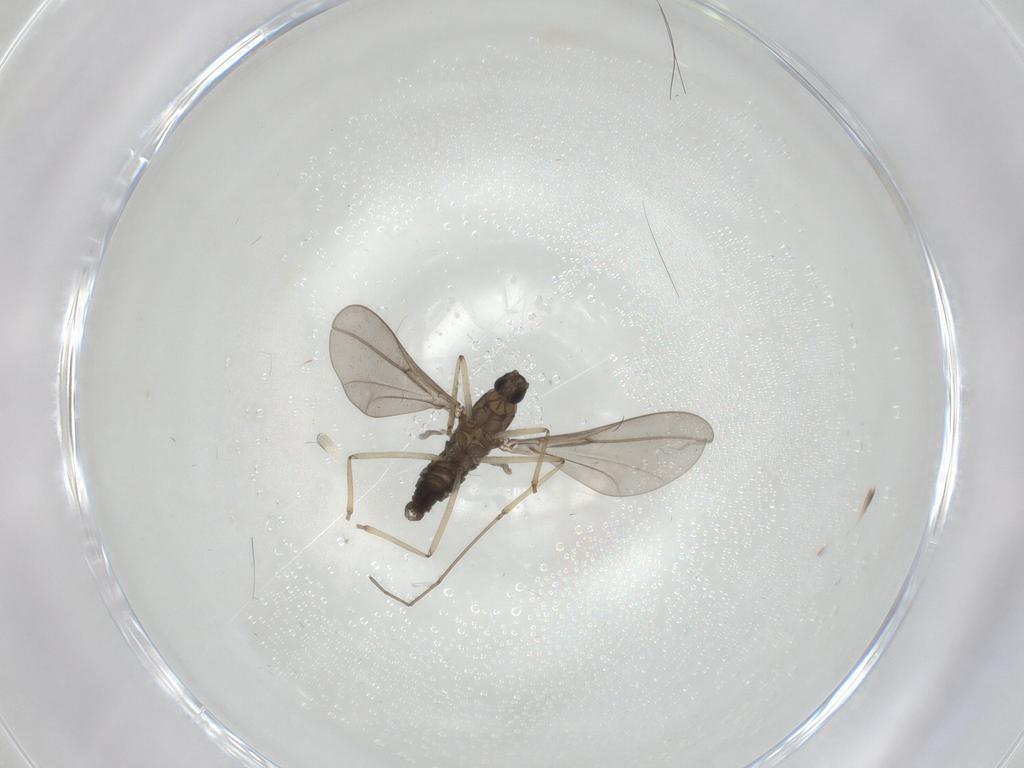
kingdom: Animalia
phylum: Arthropoda
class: Insecta
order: Diptera
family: Cecidomyiidae
